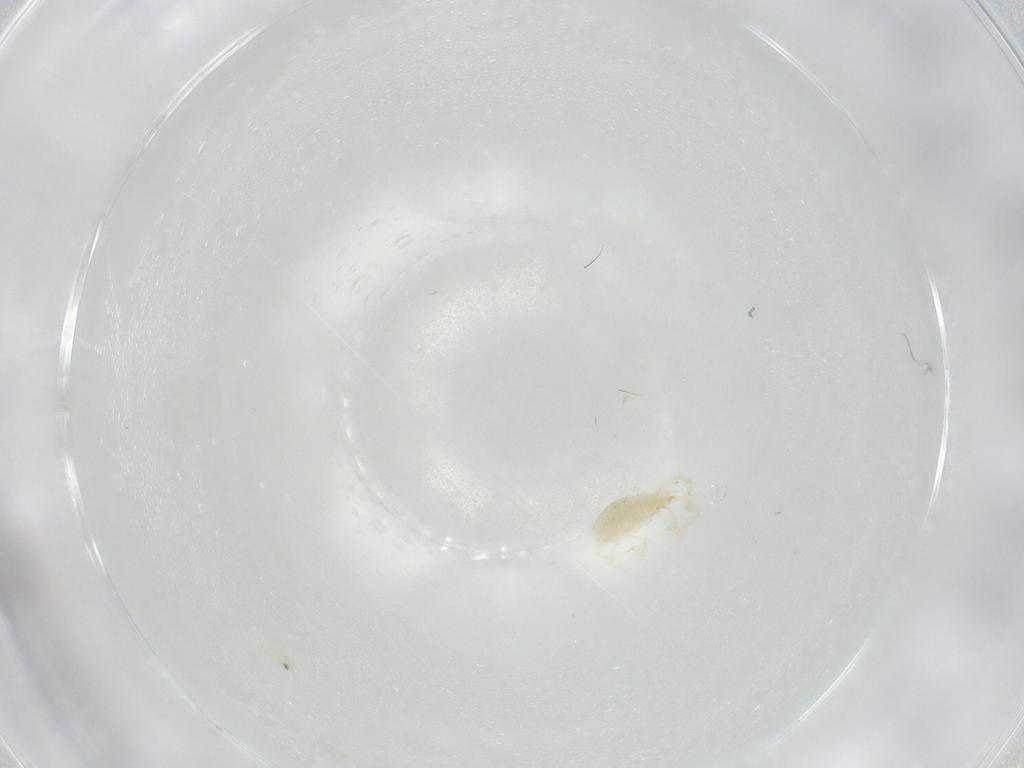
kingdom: Animalia
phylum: Arthropoda
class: Arachnida
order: Trombidiformes
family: Erythraeidae
